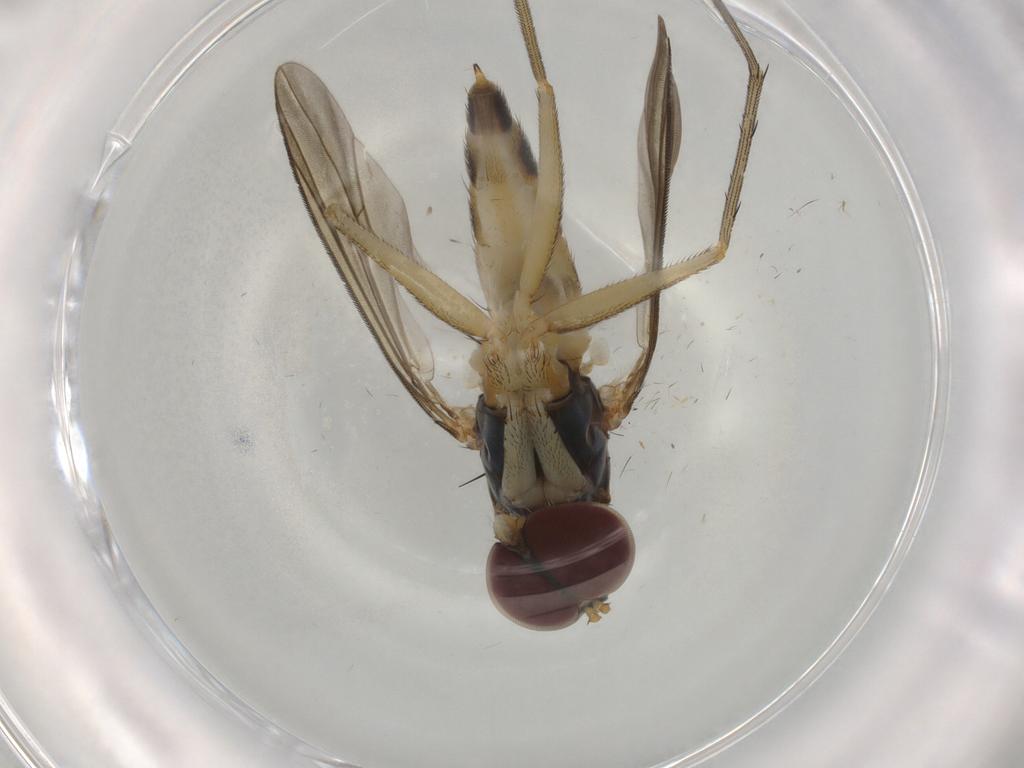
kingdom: Animalia
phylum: Arthropoda
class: Insecta
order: Diptera
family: Dolichopodidae
